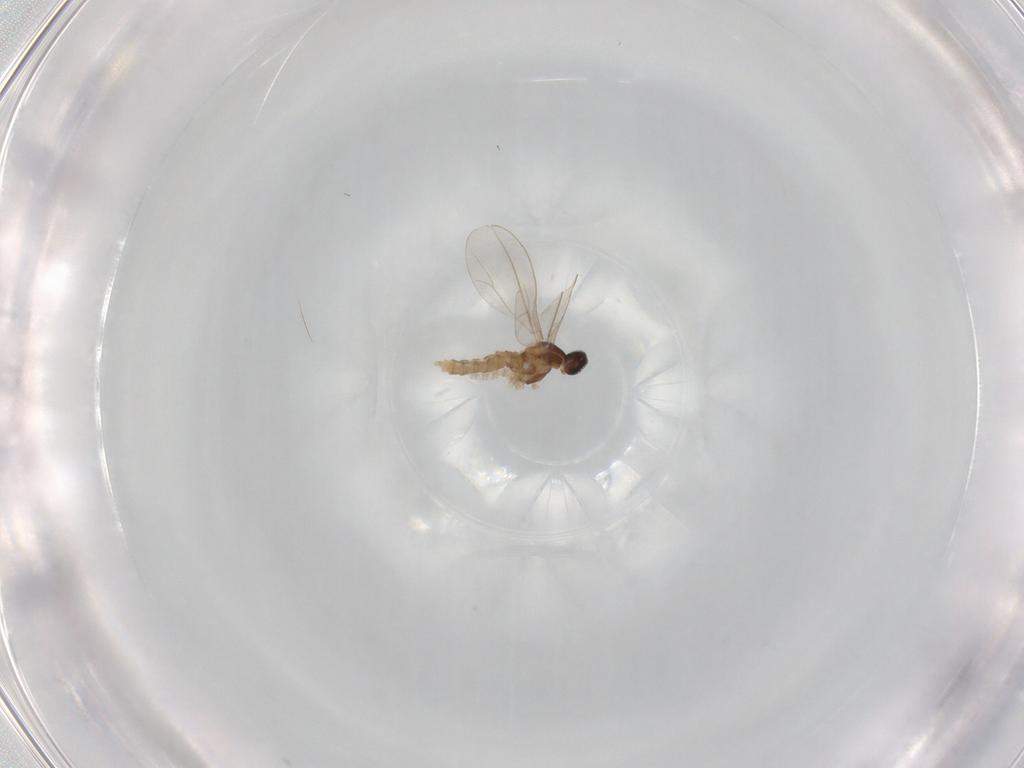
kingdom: Animalia
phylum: Arthropoda
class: Insecta
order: Diptera
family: Cecidomyiidae
